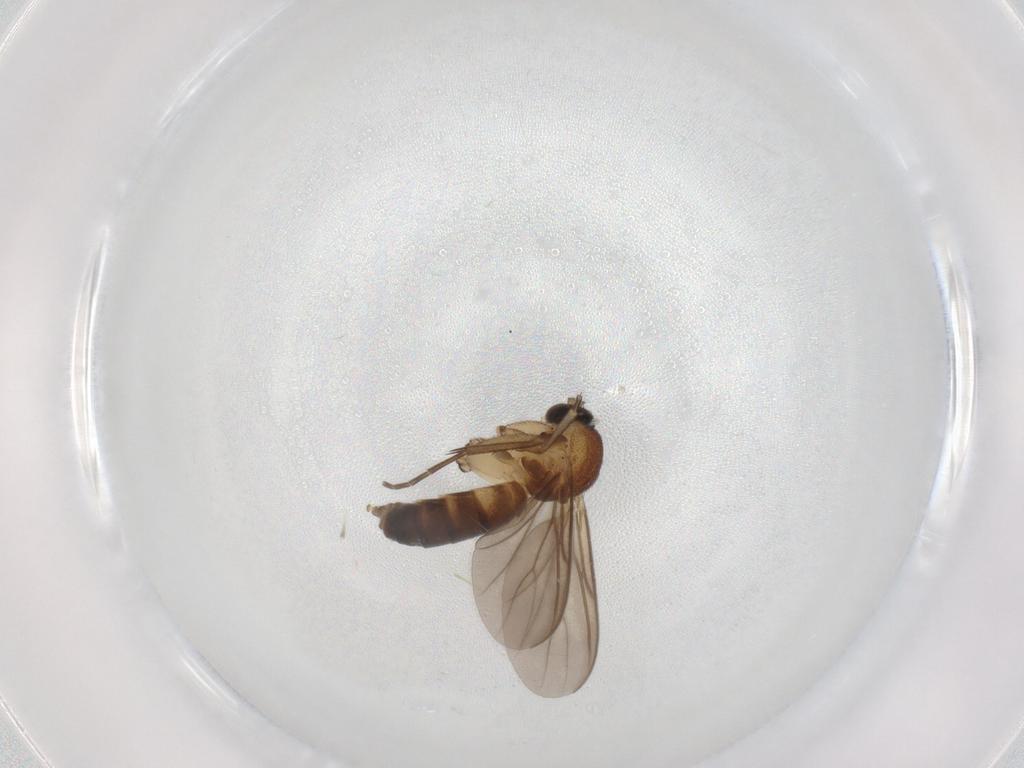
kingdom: Animalia
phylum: Arthropoda
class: Insecta
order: Diptera
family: Mycetophilidae
